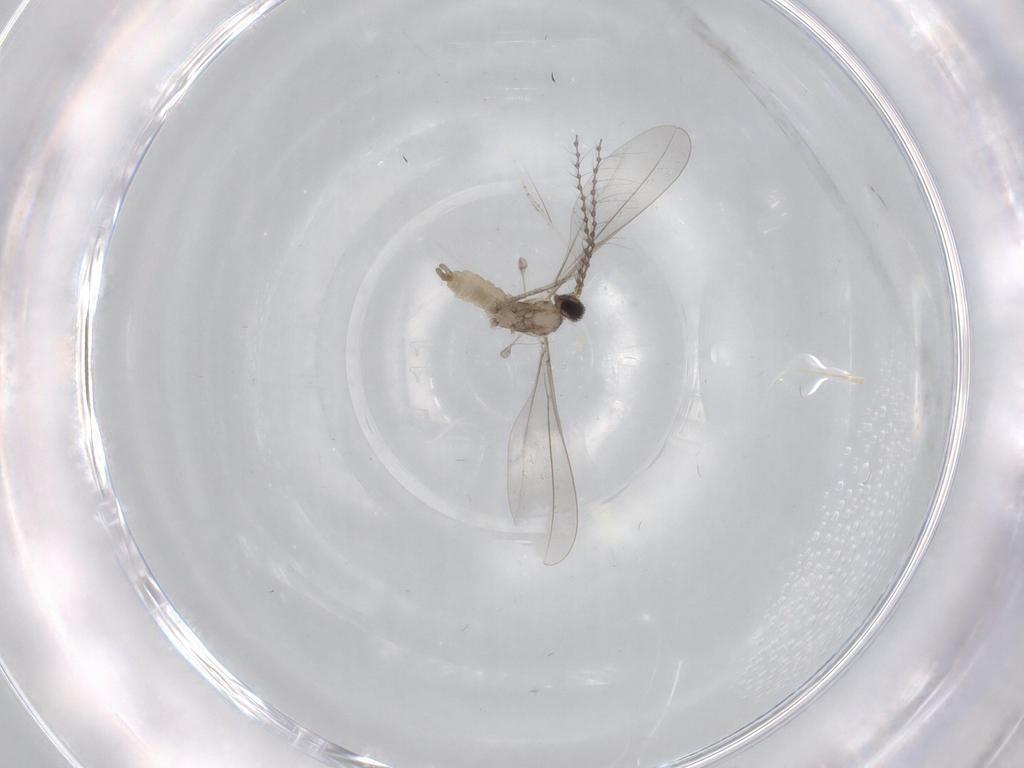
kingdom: Animalia
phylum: Arthropoda
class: Insecta
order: Diptera
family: Cecidomyiidae
